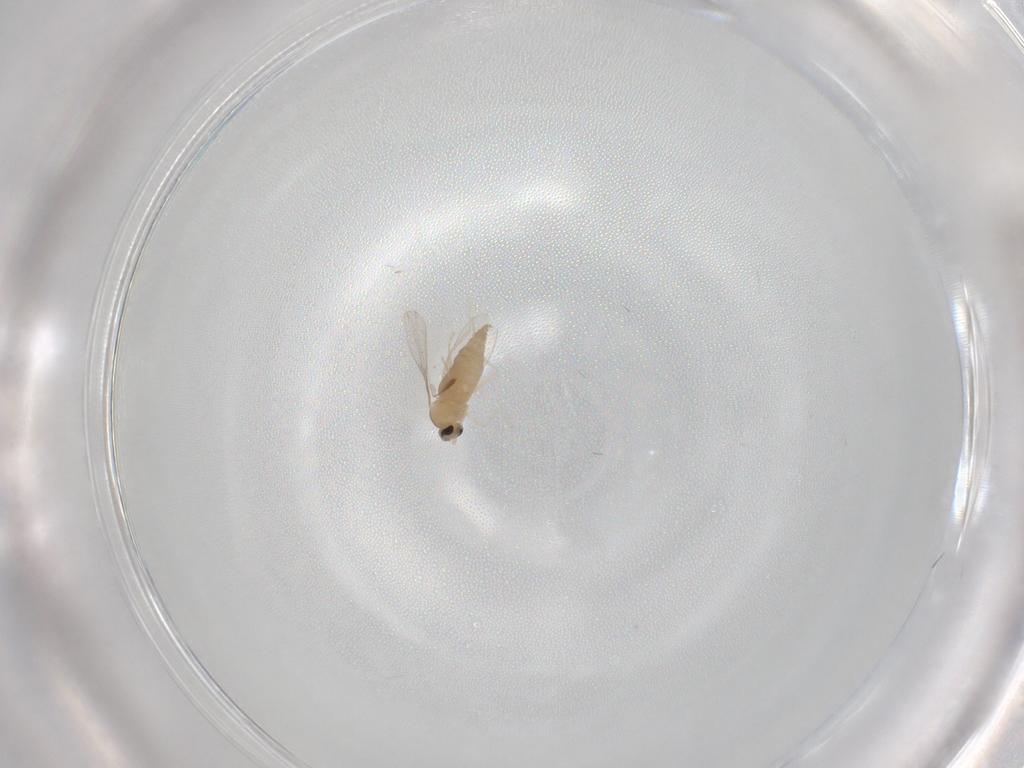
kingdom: Animalia
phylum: Arthropoda
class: Insecta
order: Diptera
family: Cecidomyiidae
